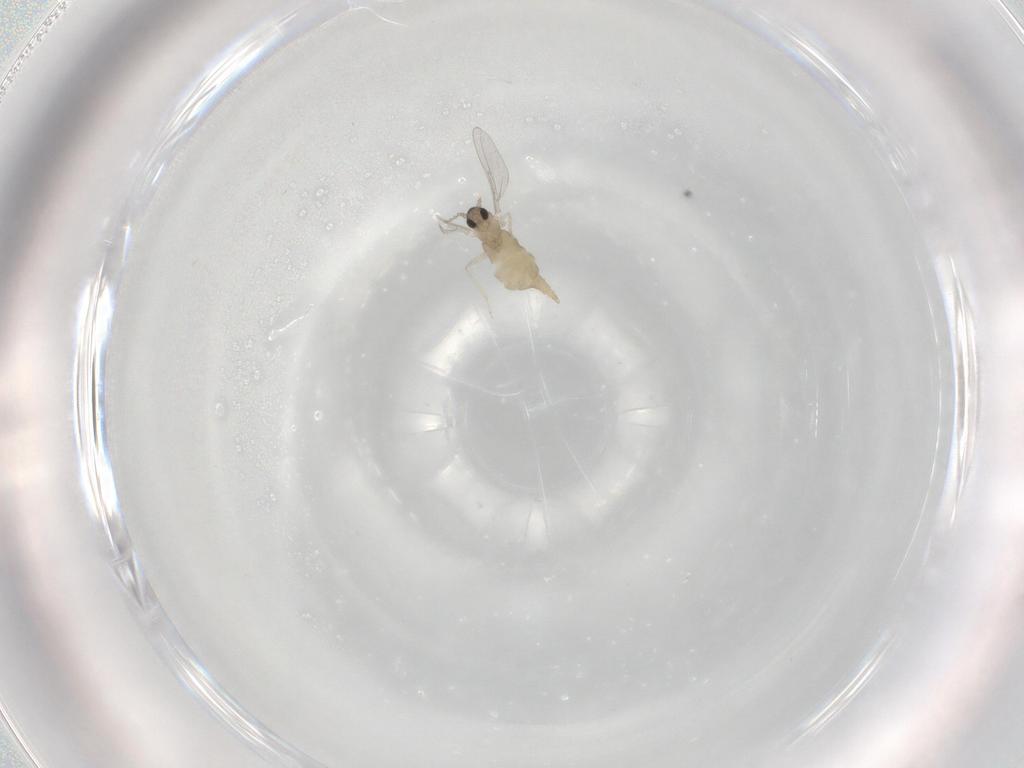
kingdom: Animalia
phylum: Arthropoda
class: Insecta
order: Diptera
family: Cecidomyiidae
